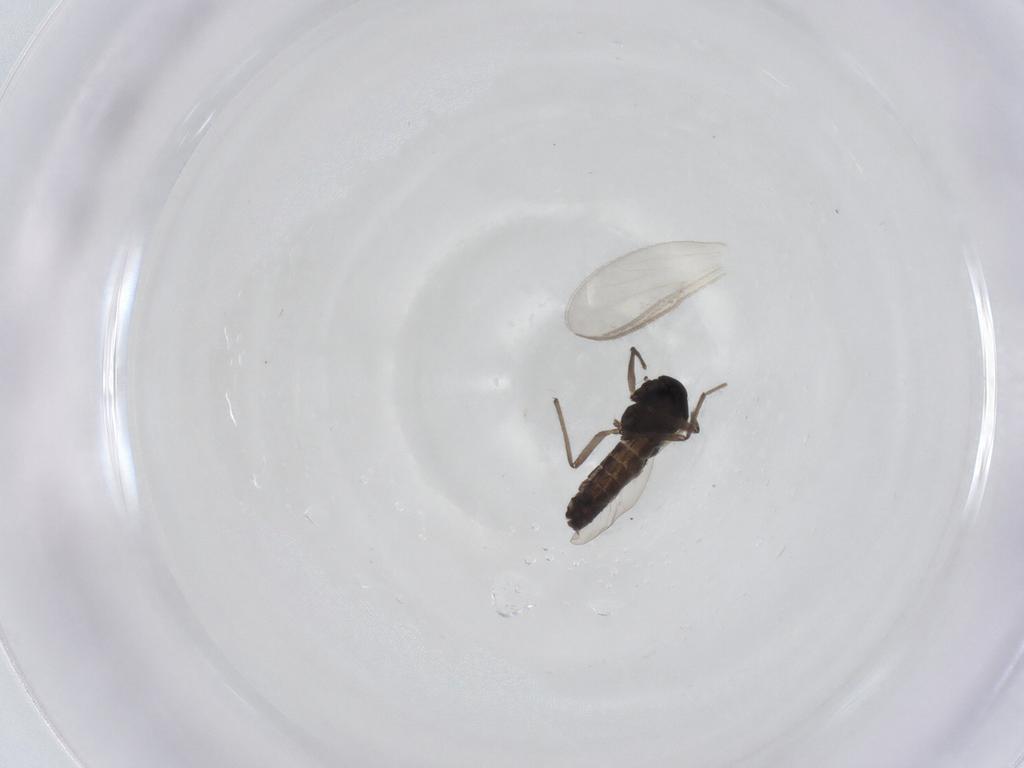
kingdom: Animalia
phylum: Arthropoda
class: Insecta
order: Diptera
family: Chironomidae
